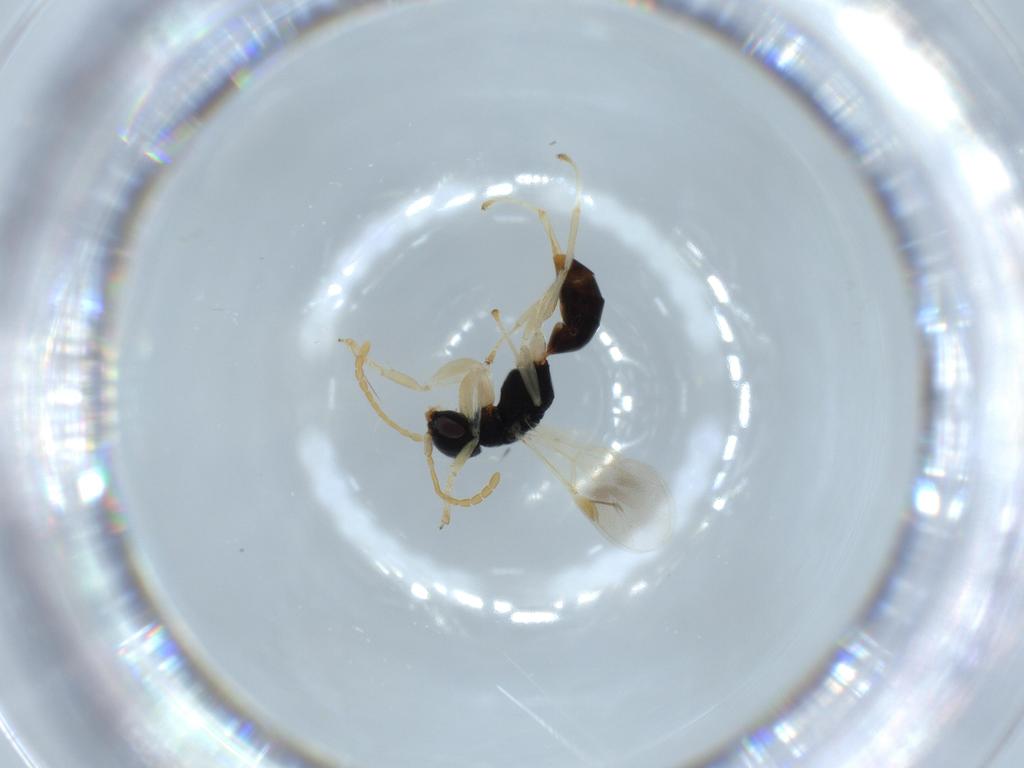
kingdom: Animalia
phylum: Arthropoda
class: Insecta
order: Hymenoptera
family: Dryinidae
